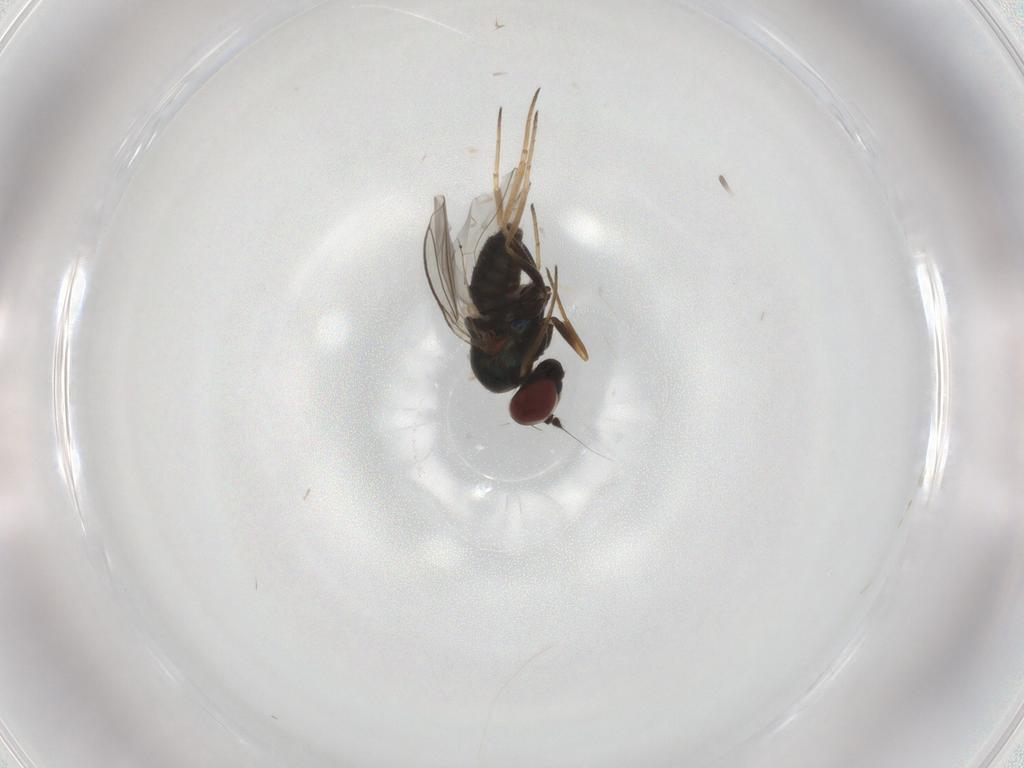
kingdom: Animalia
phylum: Arthropoda
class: Insecta
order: Diptera
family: Dolichopodidae
